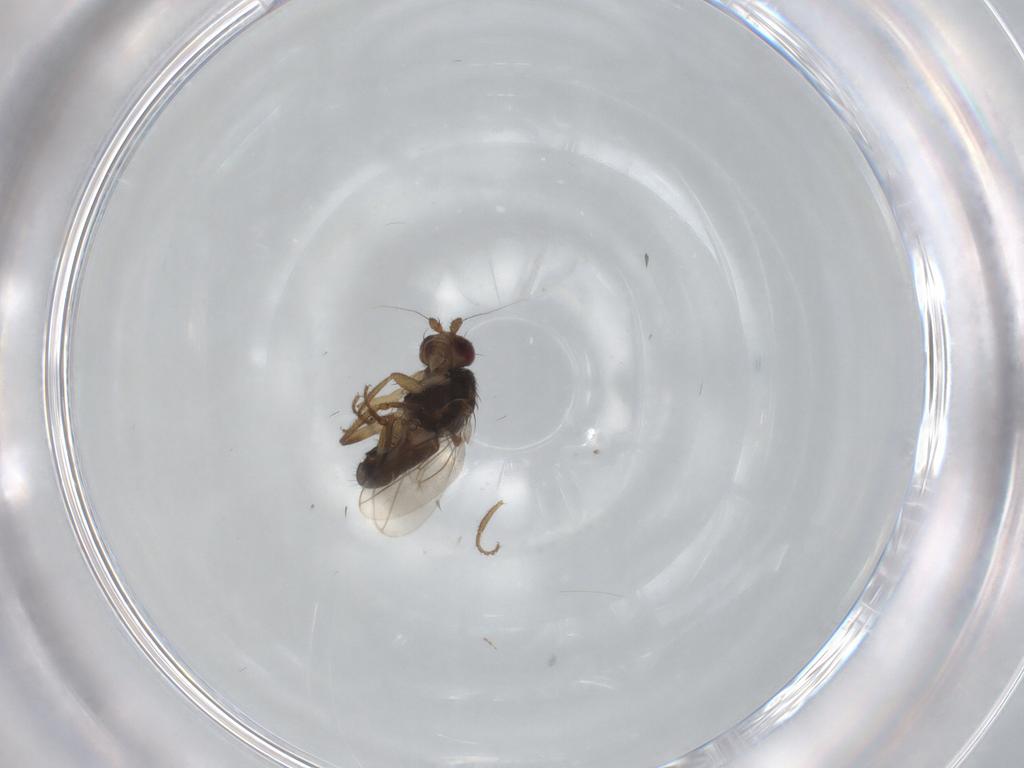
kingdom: Animalia
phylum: Arthropoda
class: Insecta
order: Diptera
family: Sphaeroceridae
